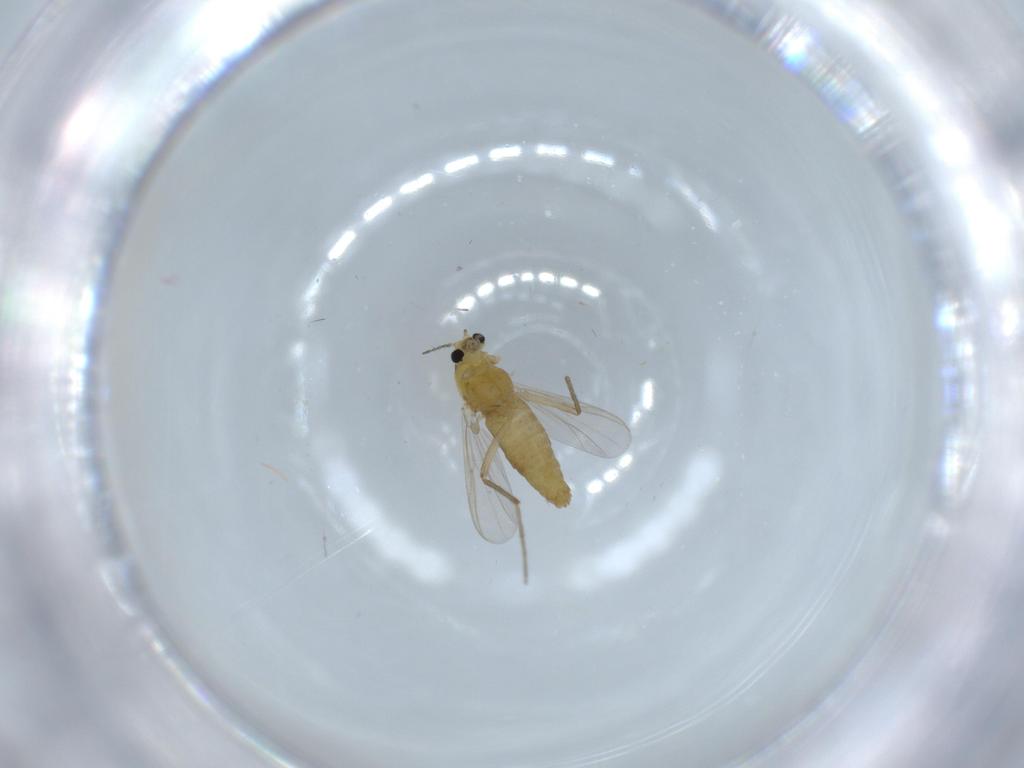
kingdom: Animalia
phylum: Arthropoda
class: Insecta
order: Diptera
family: Chironomidae
